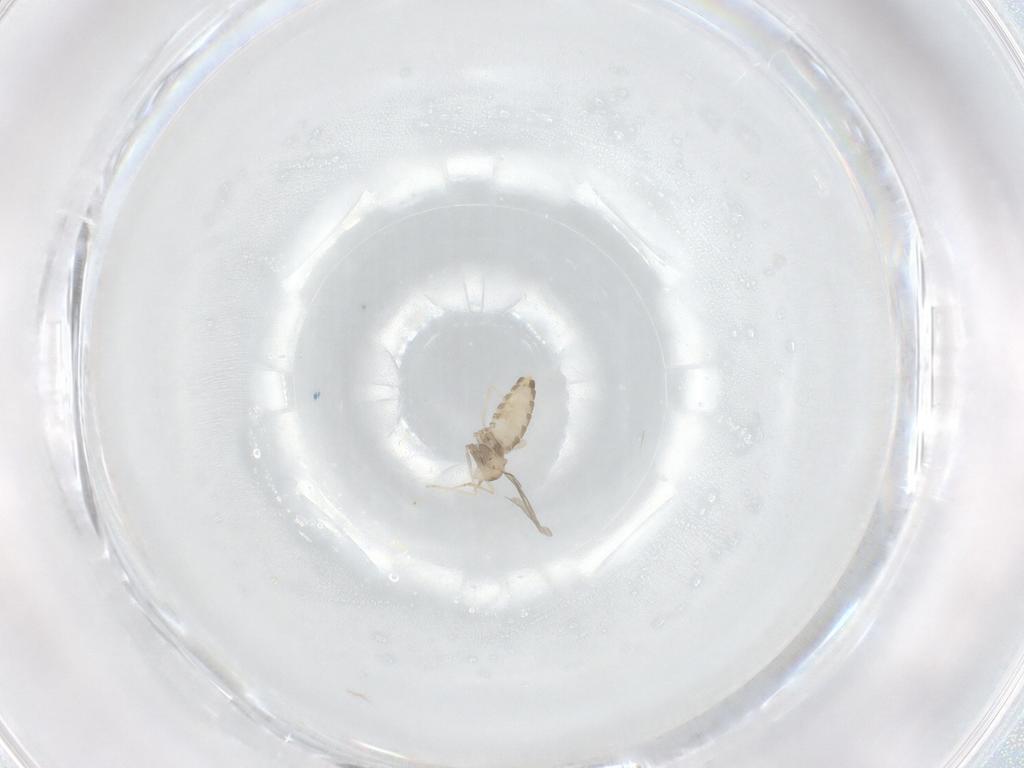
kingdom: Animalia
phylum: Arthropoda
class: Insecta
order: Diptera
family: Cecidomyiidae
